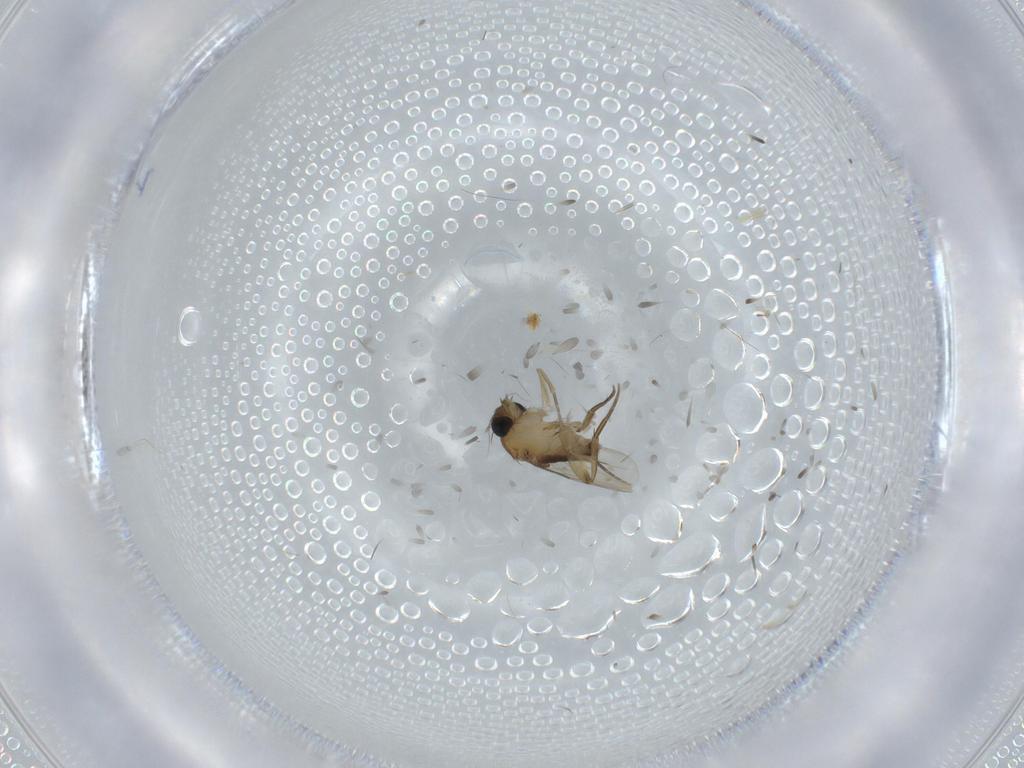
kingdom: Animalia
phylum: Arthropoda
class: Insecta
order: Diptera
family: Phoridae
